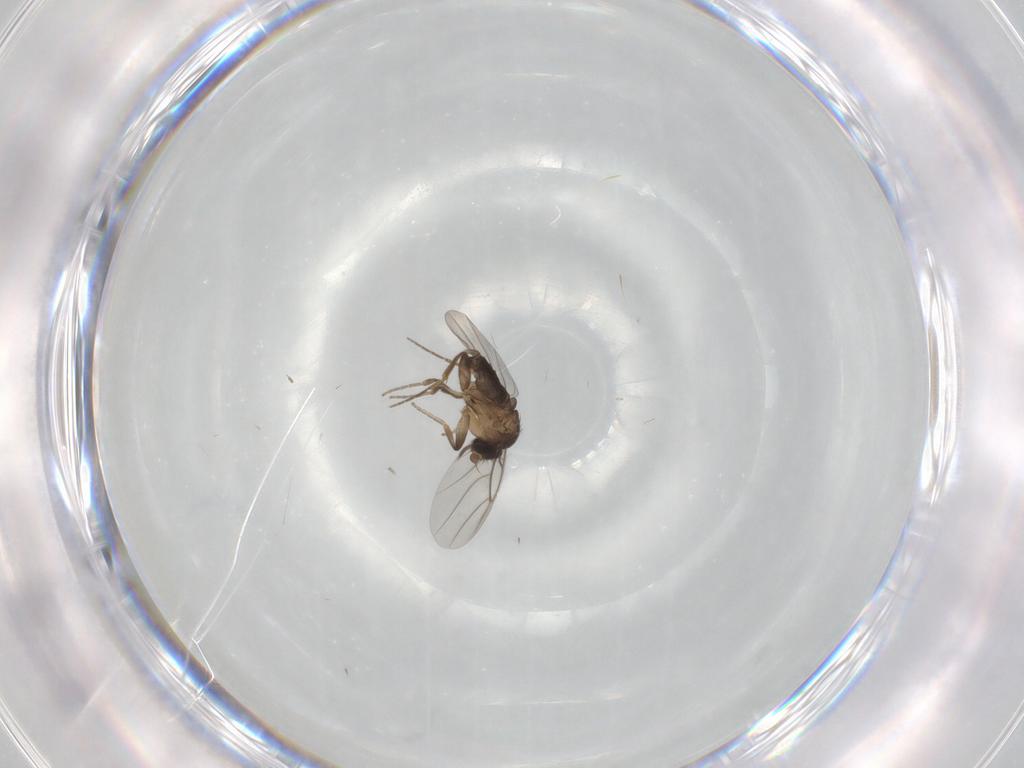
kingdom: Animalia
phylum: Arthropoda
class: Insecta
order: Diptera
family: Phoridae
